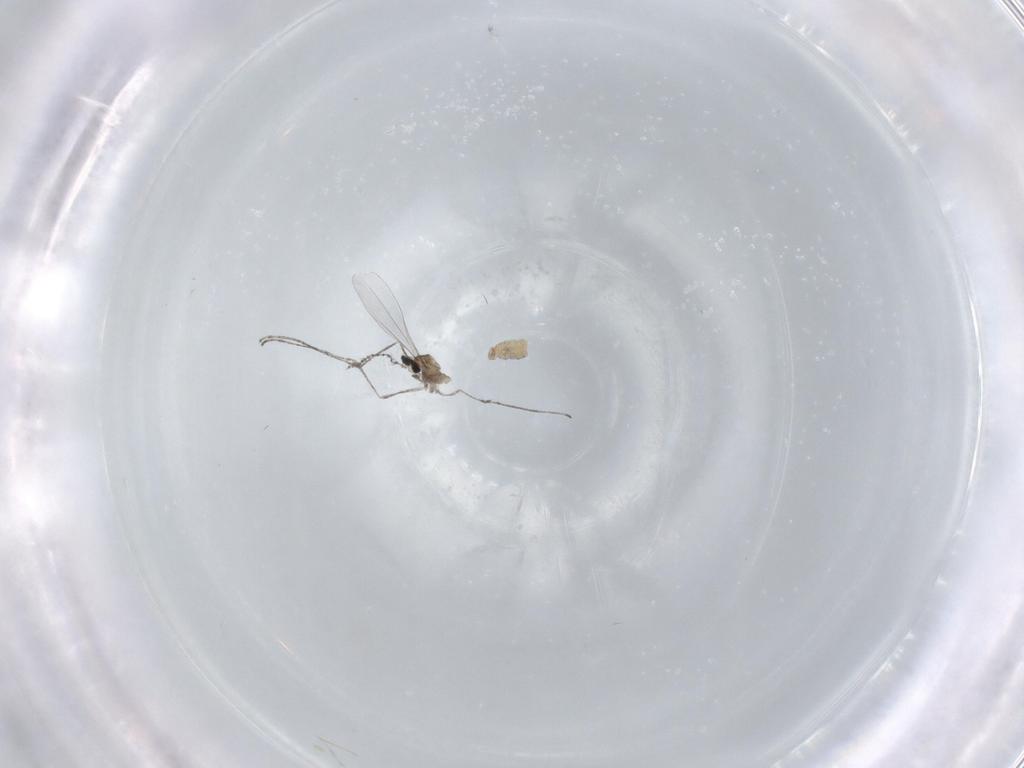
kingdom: Animalia
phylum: Arthropoda
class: Insecta
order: Diptera
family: Cecidomyiidae
